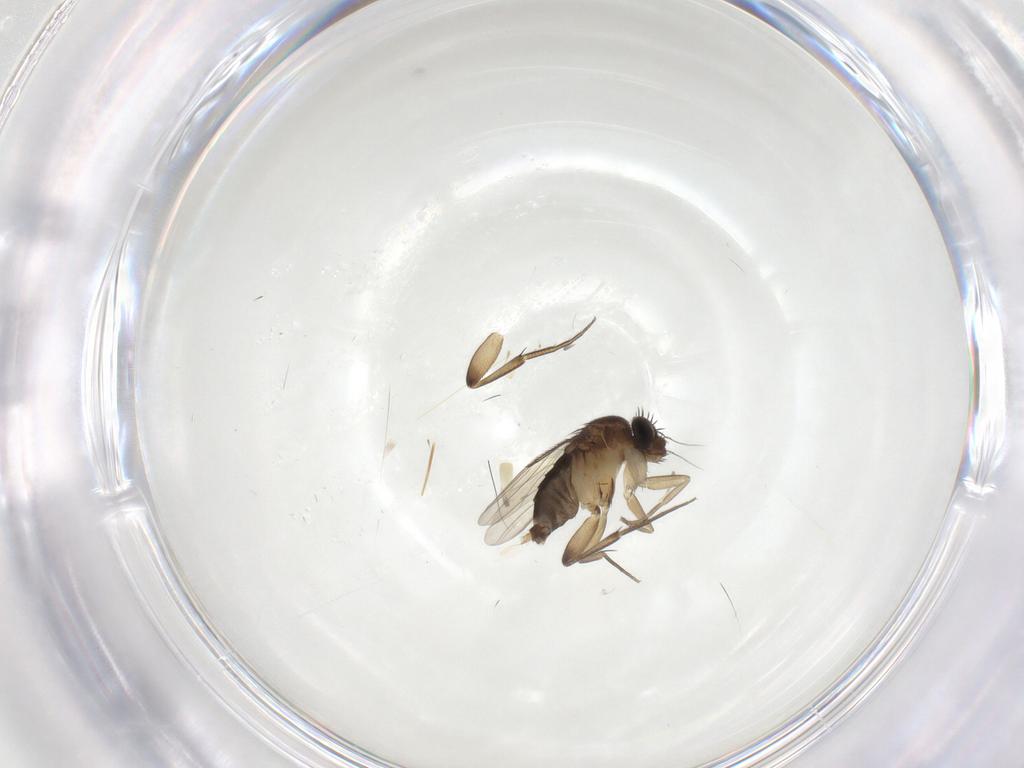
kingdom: Animalia
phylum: Arthropoda
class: Insecta
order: Diptera
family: Phoridae
